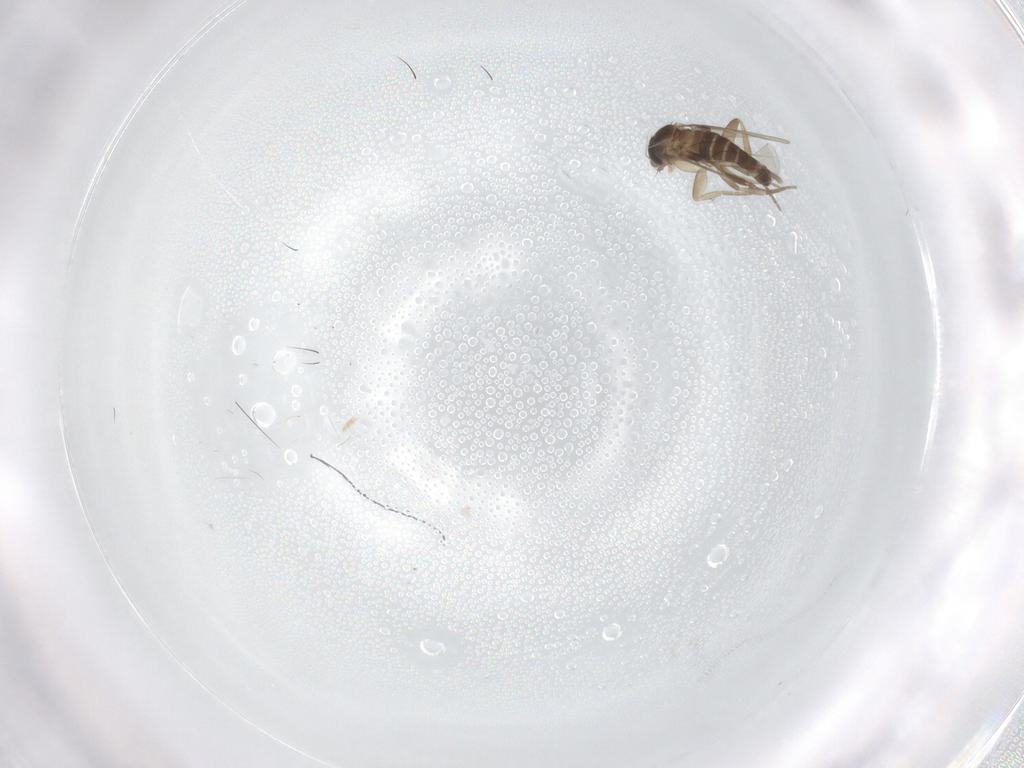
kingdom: Animalia
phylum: Arthropoda
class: Insecta
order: Diptera
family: Phoridae
